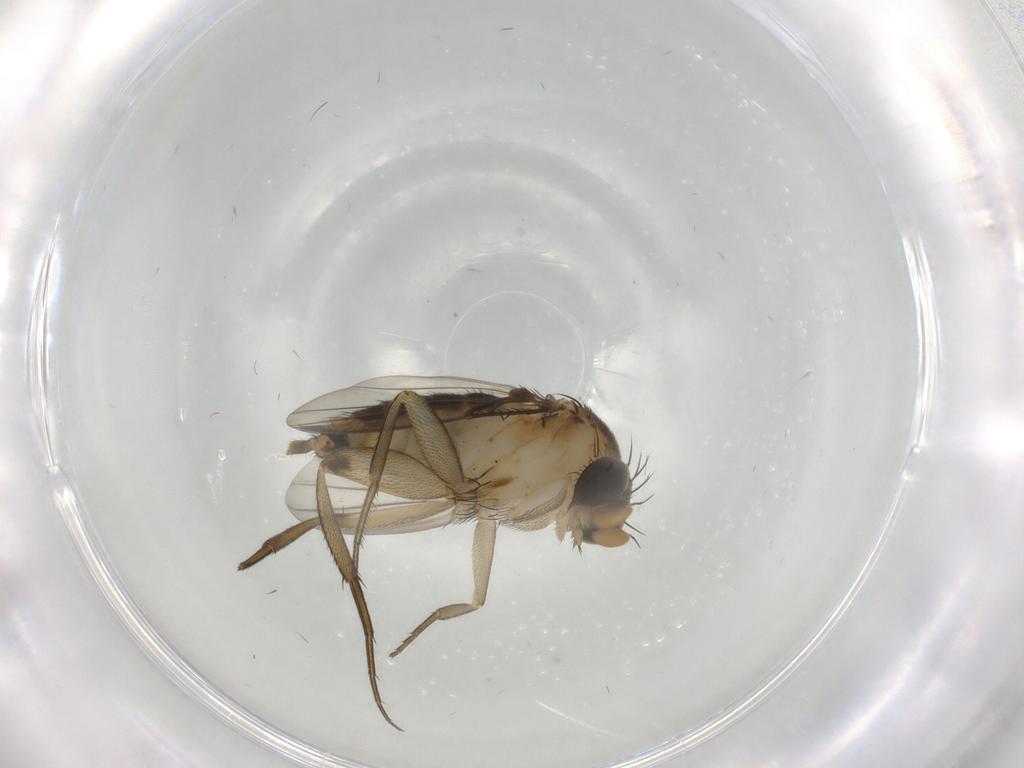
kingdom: Animalia
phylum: Arthropoda
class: Insecta
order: Diptera
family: Phoridae
